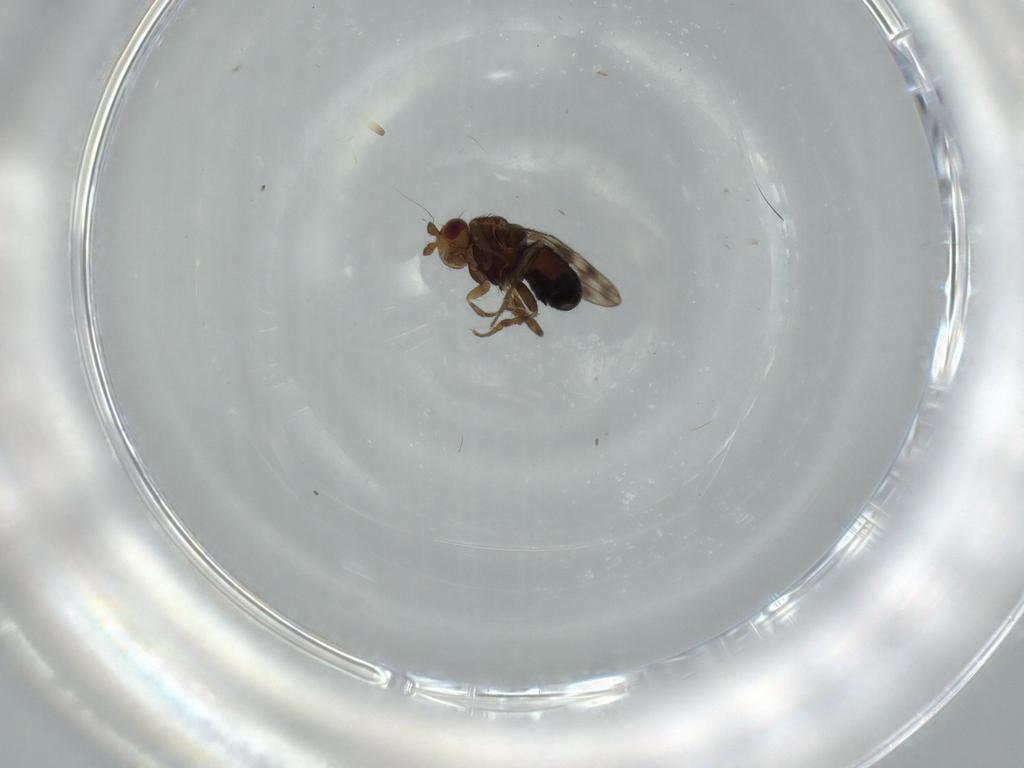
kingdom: Animalia
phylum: Arthropoda
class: Insecta
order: Diptera
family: Sphaeroceridae
